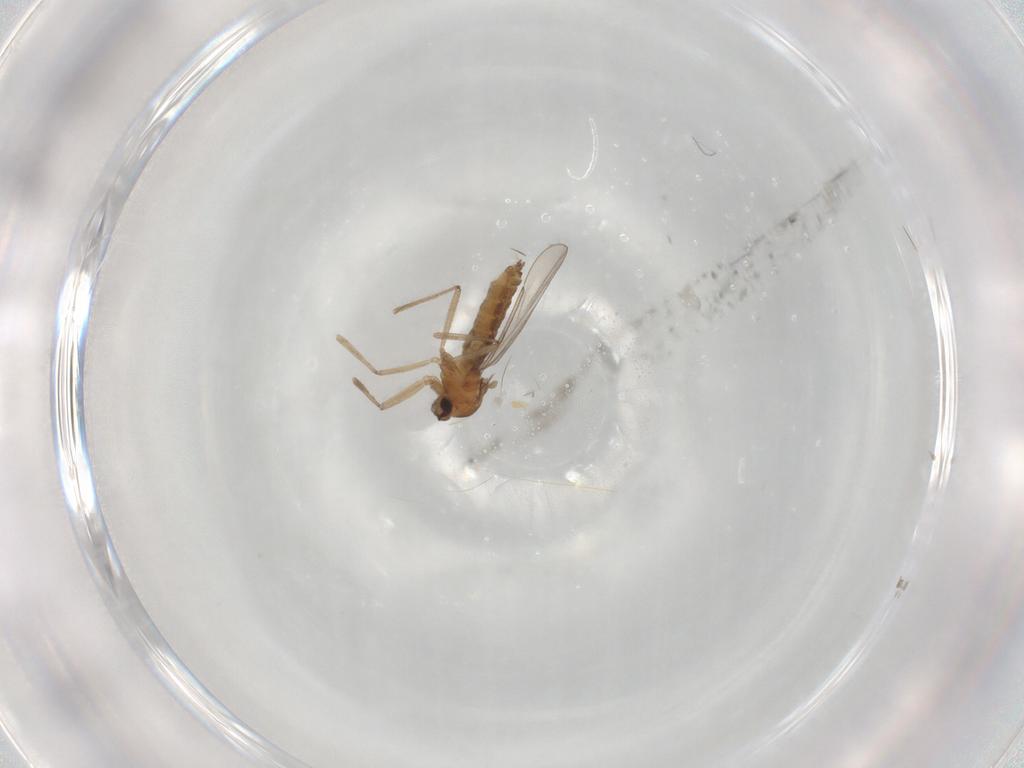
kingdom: Animalia
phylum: Arthropoda
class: Insecta
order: Diptera
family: Cecidomyiidae
